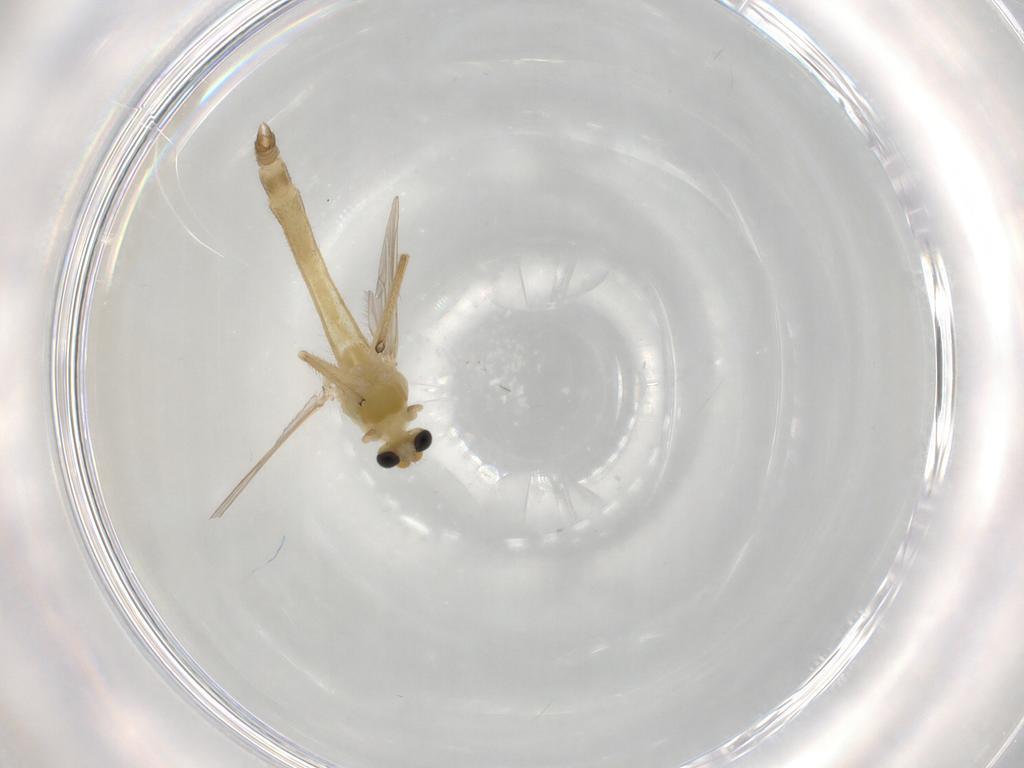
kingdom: Animalia
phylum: Arthropoda
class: Insecta
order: Diptera
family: Chironomidae
